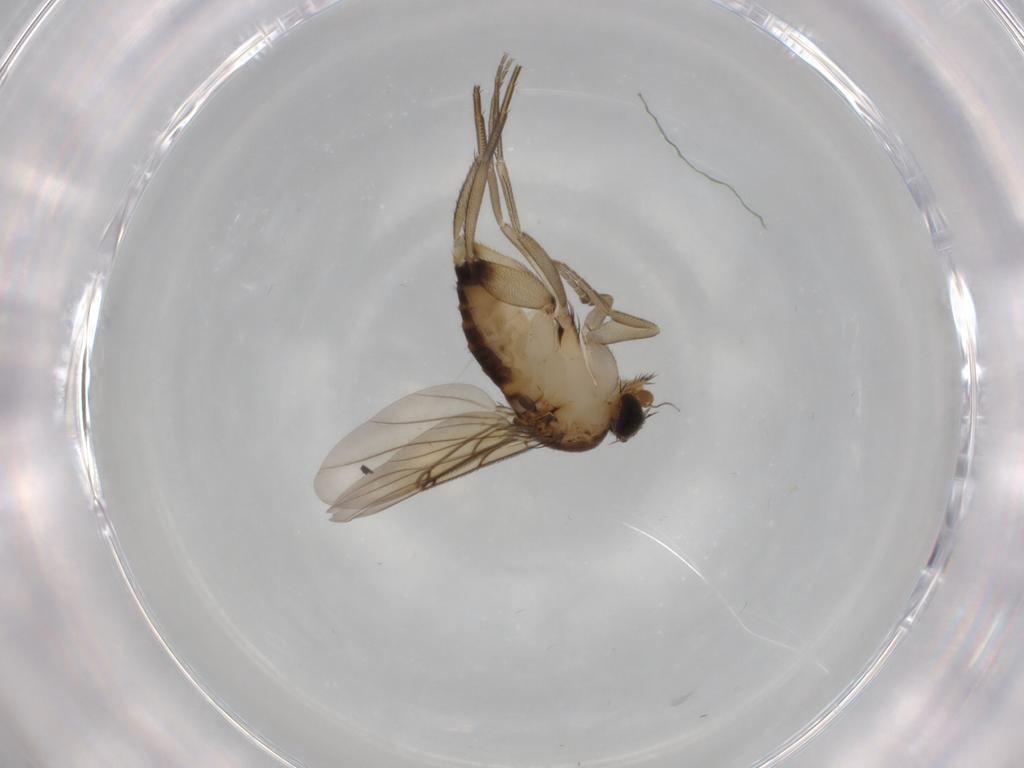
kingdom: Animalia
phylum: Arthropoda
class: Insecta
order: Diptera
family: Phoridae
